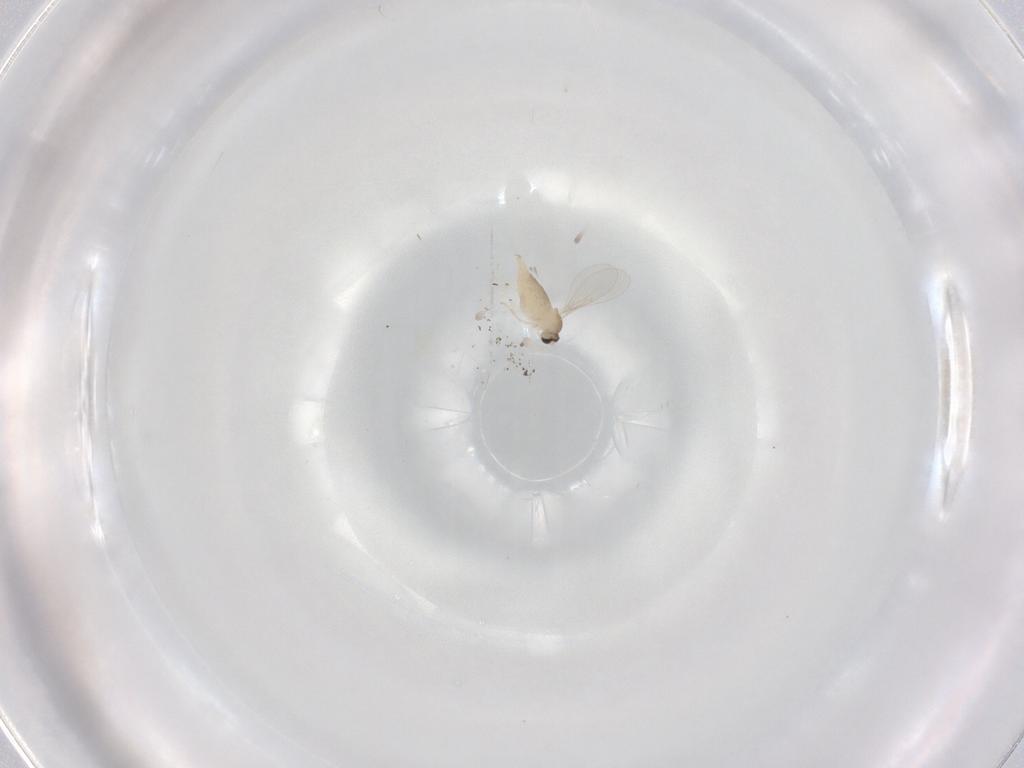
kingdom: Animalia
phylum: Arthropoda
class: Insecta
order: Diptera
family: Cecidomyiidae
